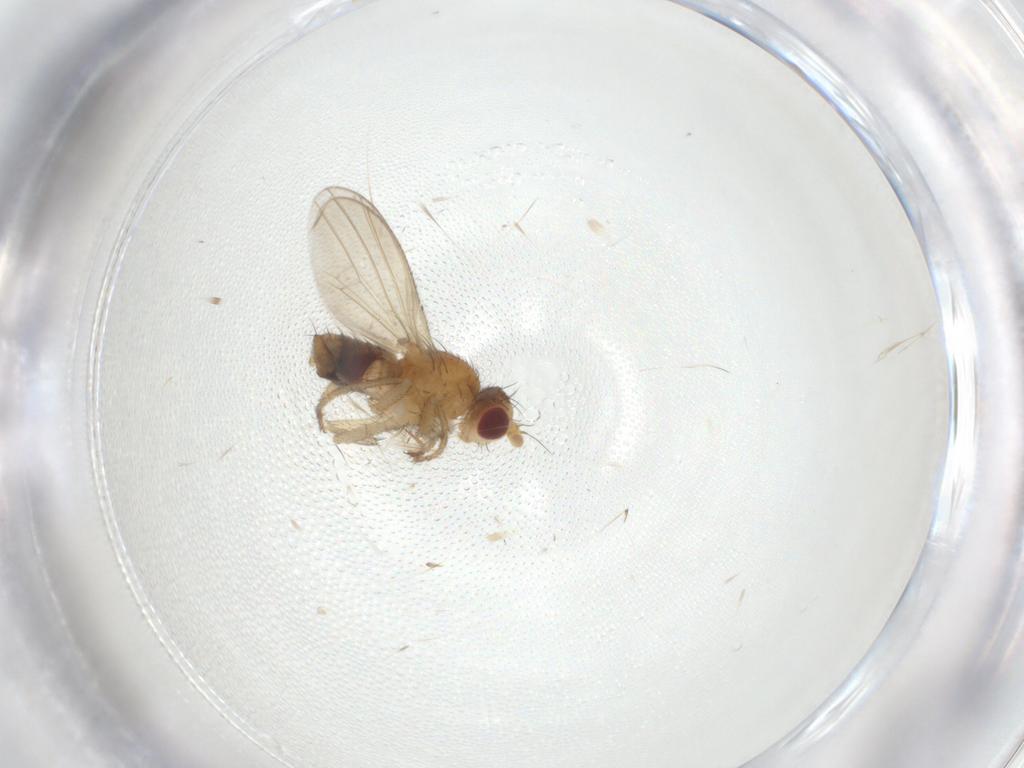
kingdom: Animalia
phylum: Arthropoda
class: Insecta
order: Diptera
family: Heleomyzidae
